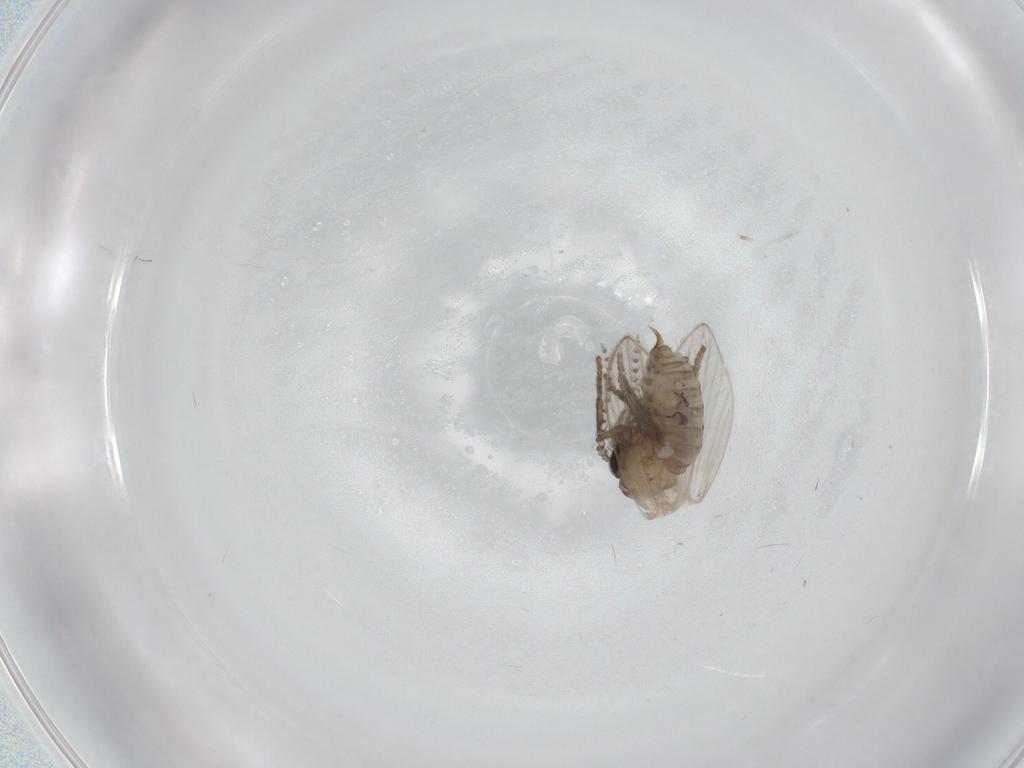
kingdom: Animalia
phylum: Arthropoda
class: Insecta
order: Diptera
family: Psychodidae
